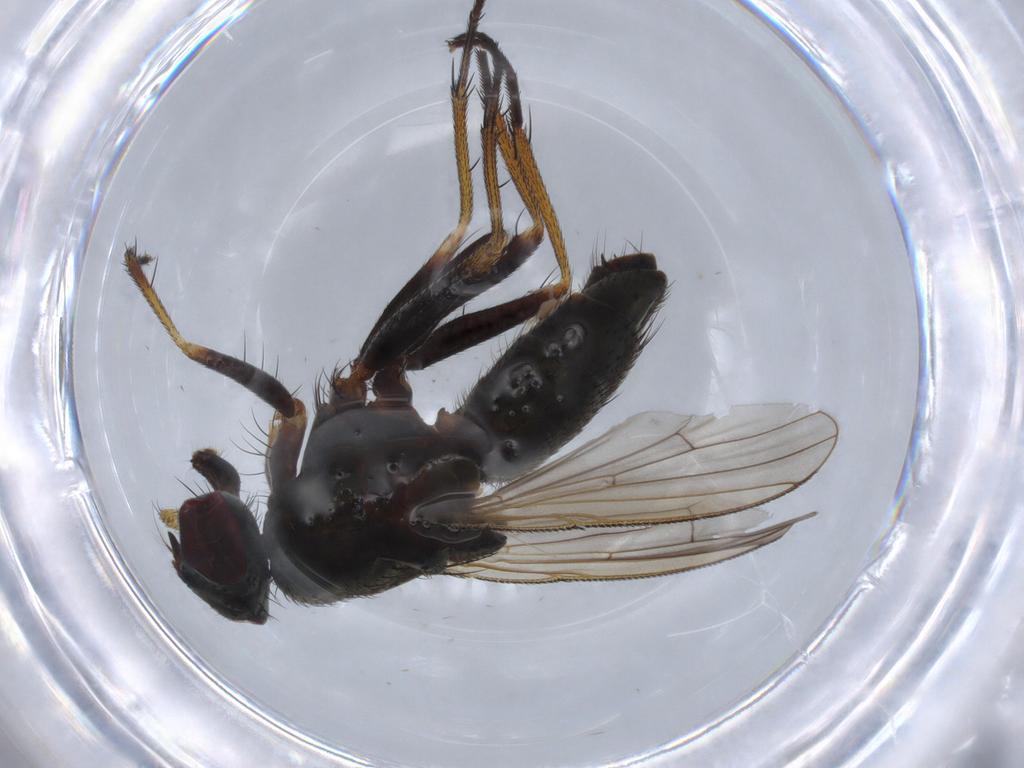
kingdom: Animalia
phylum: Arthropoda
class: Insecta
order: Diptera
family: Muscidae
